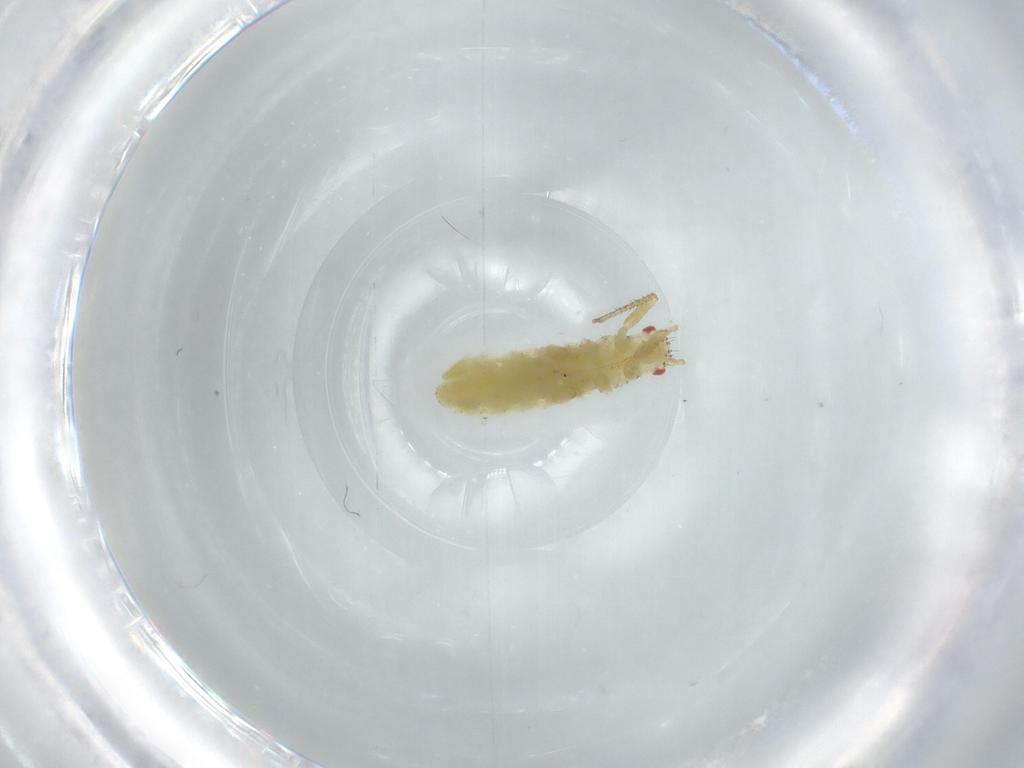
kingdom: Animalia
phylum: Arthropoda
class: Insecta
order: Hemiptera
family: Aphididae
